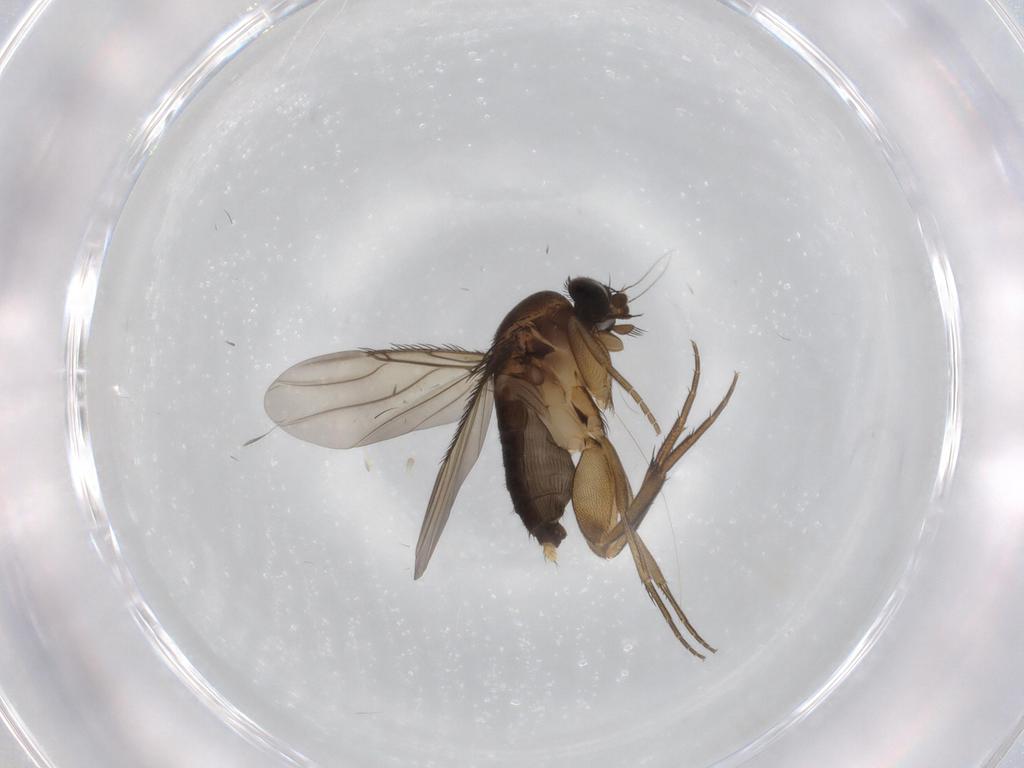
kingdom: Animalia
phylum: Arthropoda
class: Insecta
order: Diptera
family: Phoridae
